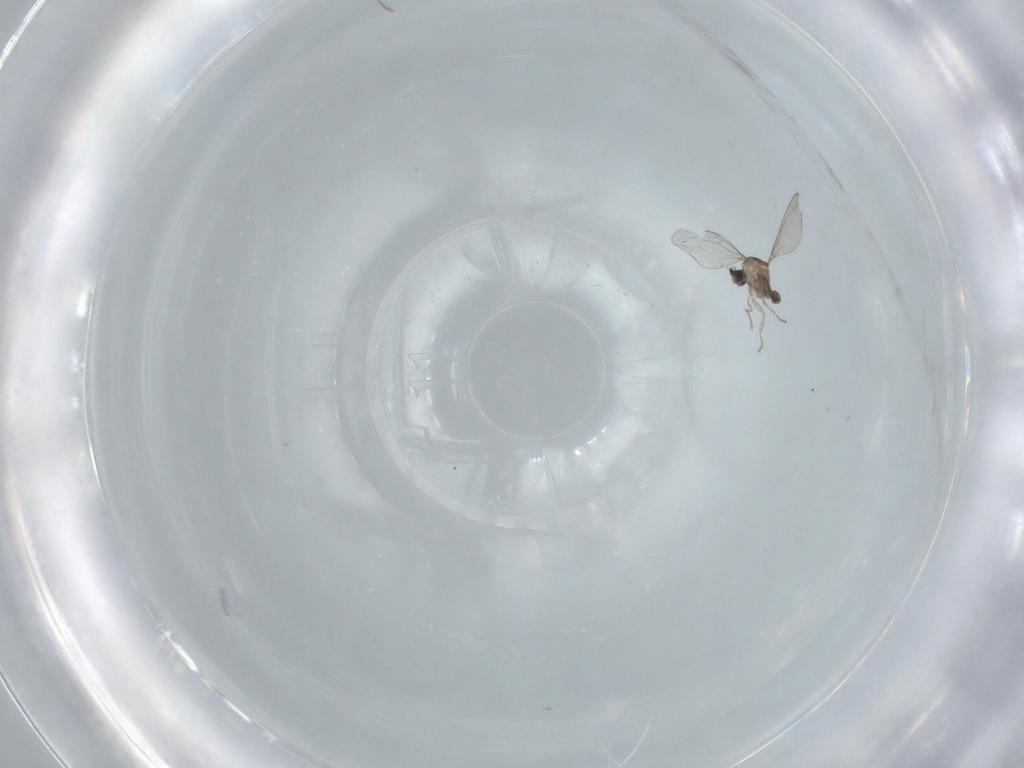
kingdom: Animalia
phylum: Arthropoda
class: Insecta
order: Diptera
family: Cecidomyiidae
